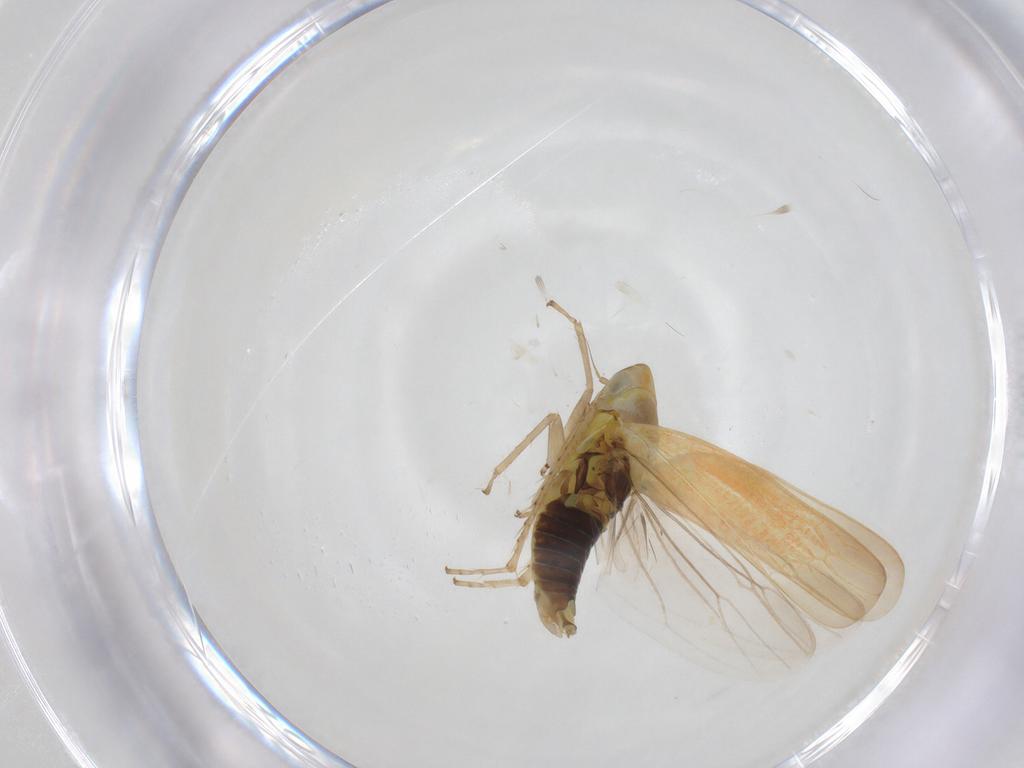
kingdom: Animalia
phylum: Arthropoda
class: Insecta
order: Hemiptera
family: Cicadellidae
